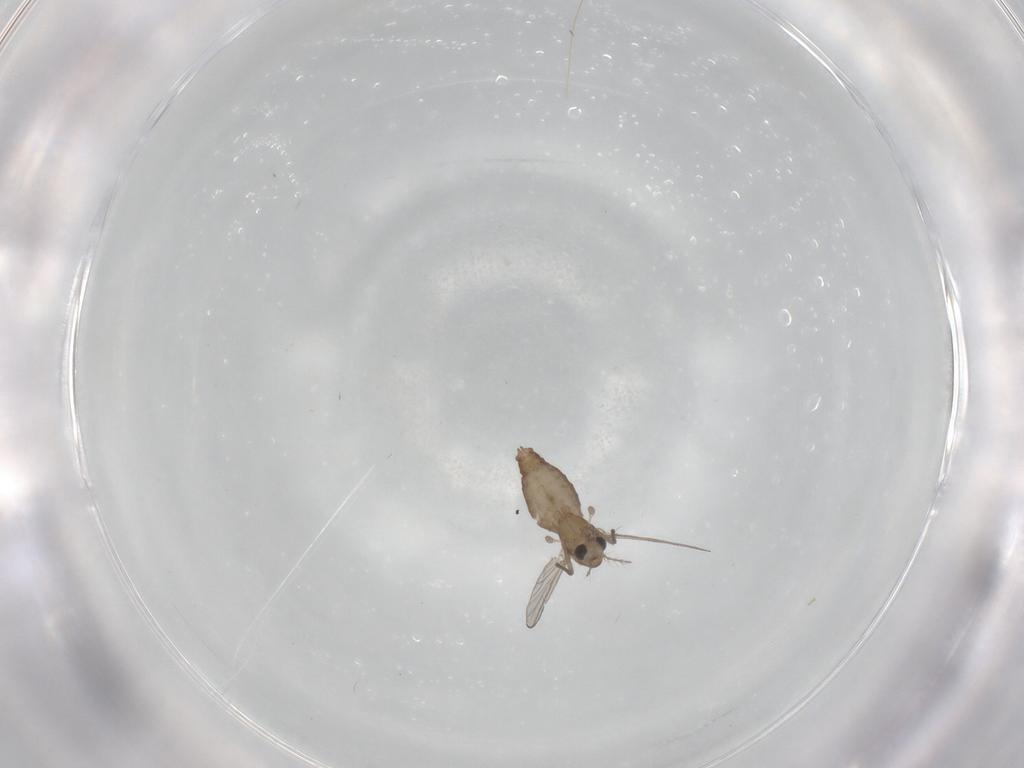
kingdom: Animalia
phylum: Arthropoda
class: Insecta
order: Diptera
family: Chironomidae
